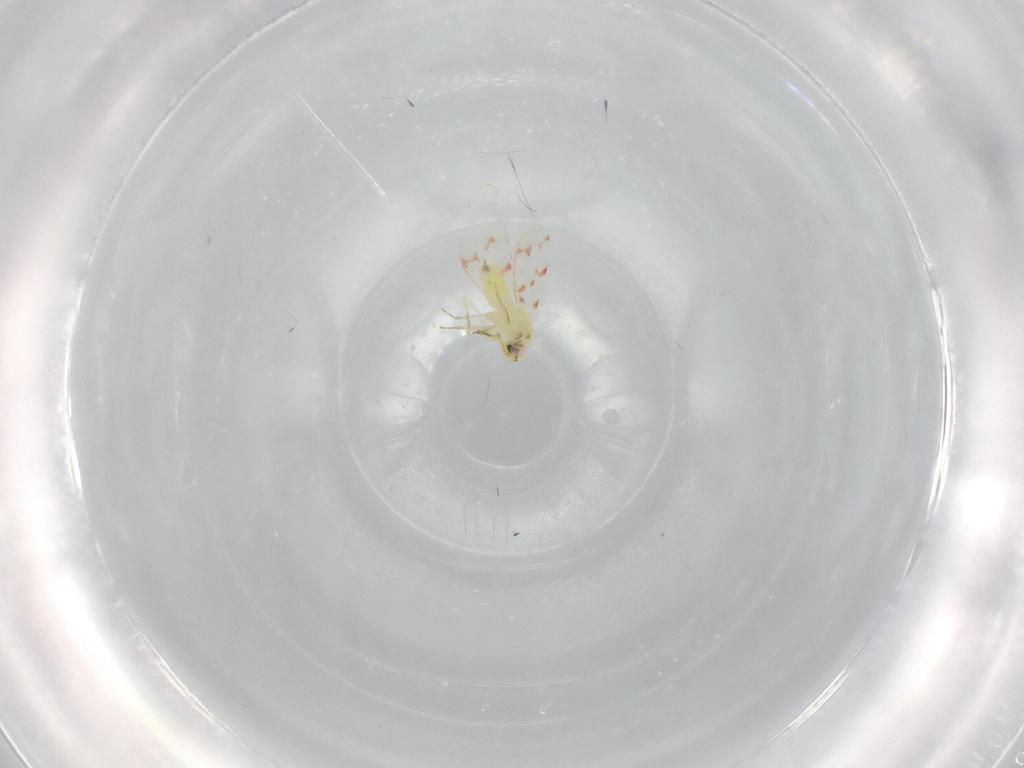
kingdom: Animalia
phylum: Arthropoda
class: Insecta
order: Hemiptera
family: Aleyrodidae
